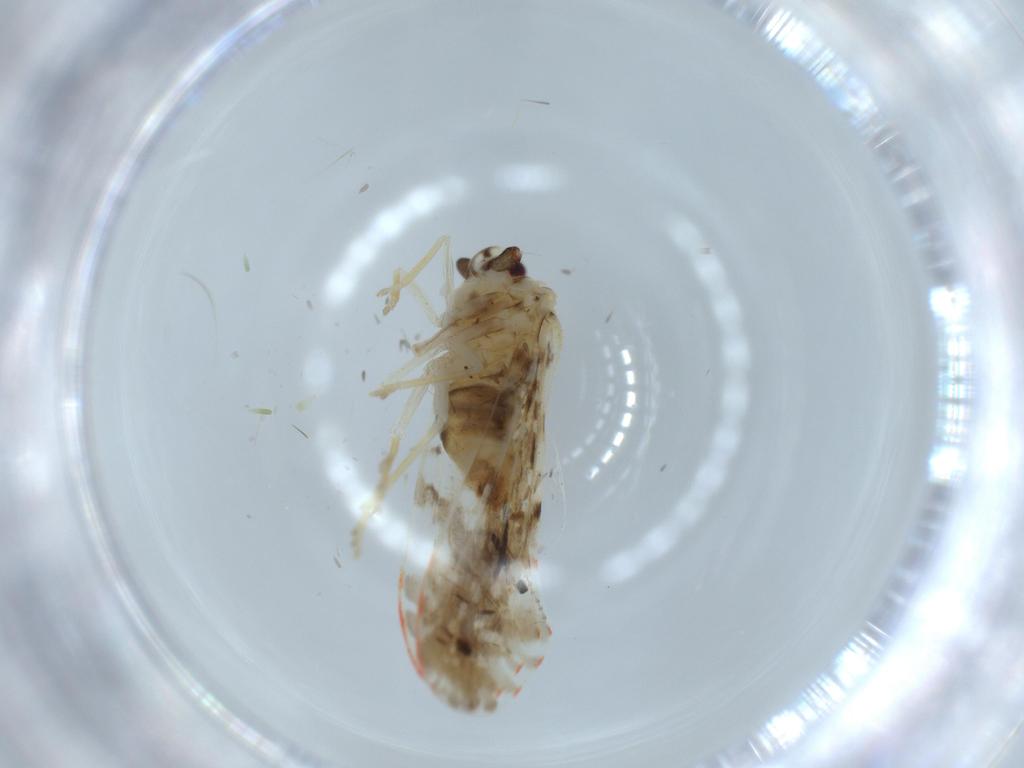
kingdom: Animalia
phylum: Arthropoda
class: Insecta
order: Hemiptera
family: Derbidae
